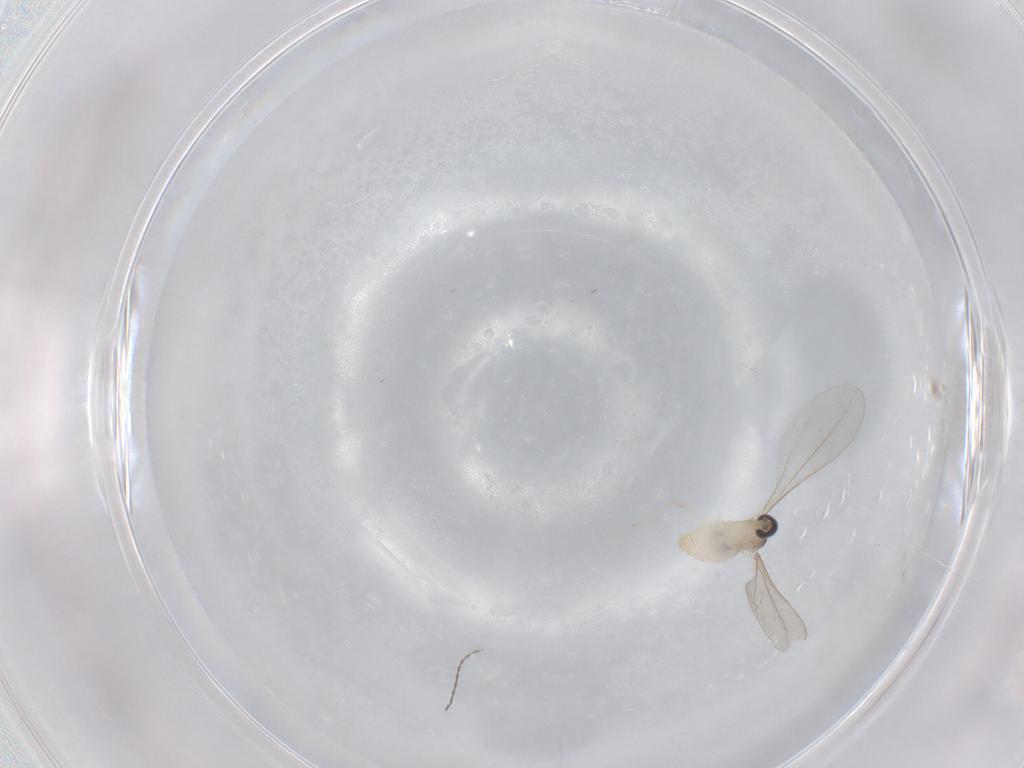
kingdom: Animalia
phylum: Arthropoda
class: Insecta
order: Diptera
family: Cecidomyiidae
